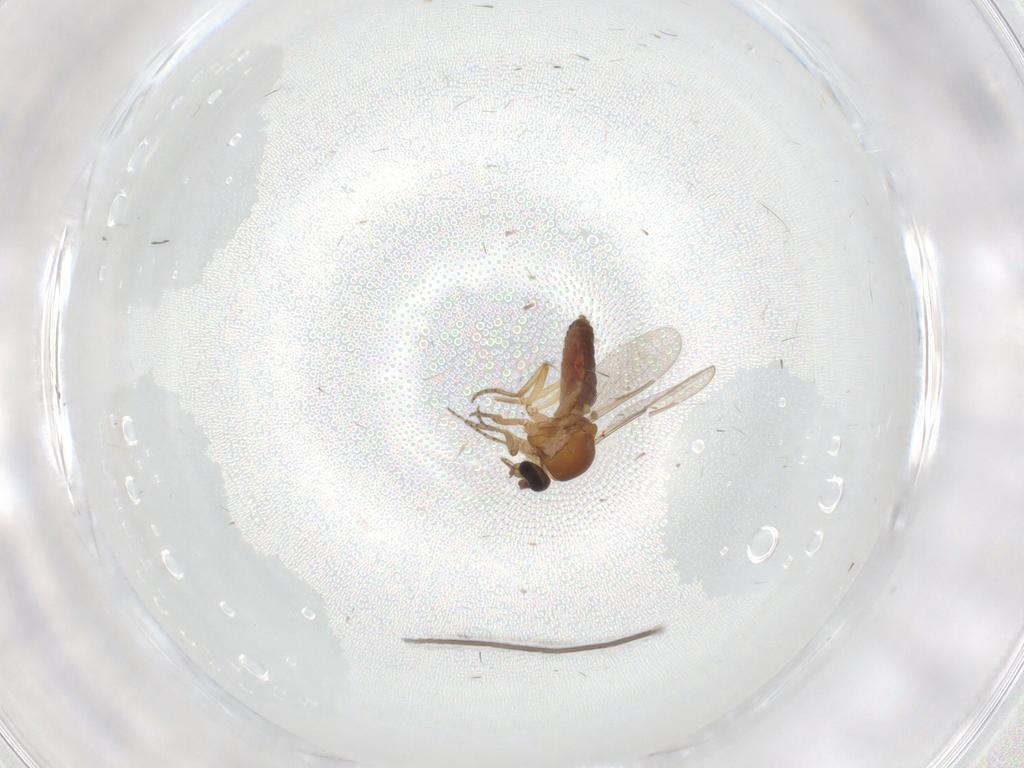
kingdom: Animalia
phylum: Arthropoda
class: Insecta
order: Diptera
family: Ceratopogonidae
